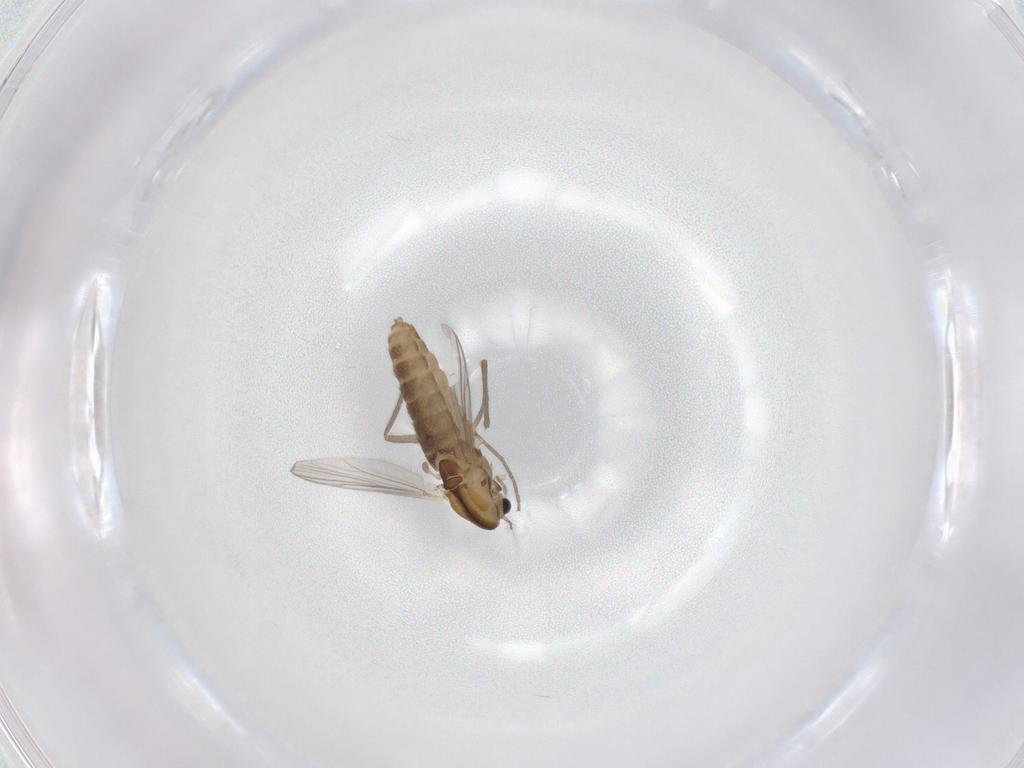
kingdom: Animalia
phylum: Arthropoda
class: Insecta
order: Diptera
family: Chironomidae
